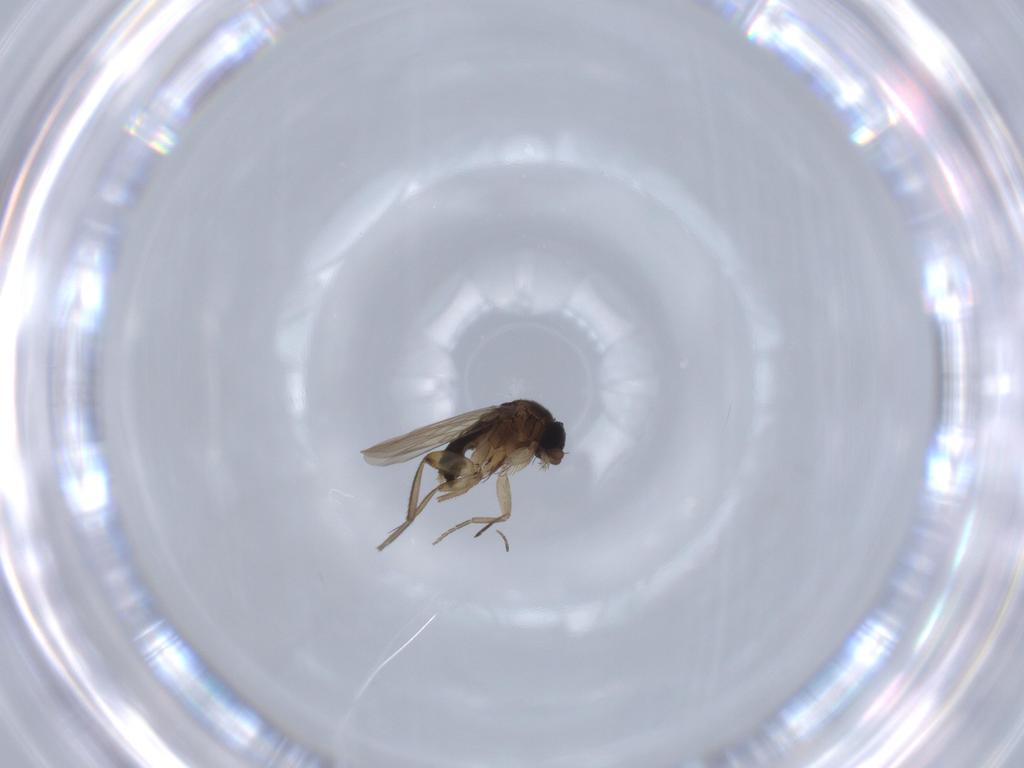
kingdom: Animalia
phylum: Arthropoda
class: Insecta
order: Diptera
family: Phoridae
